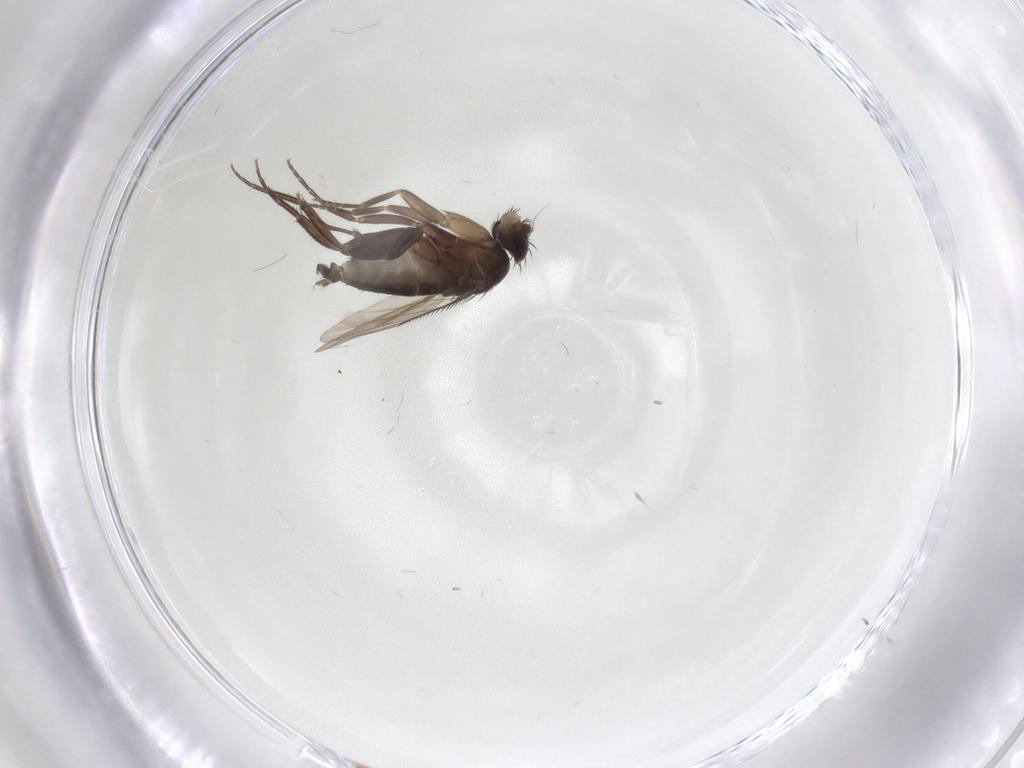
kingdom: Animalia
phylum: Arthropoda
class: Insecta
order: Diptera
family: Phoridae
